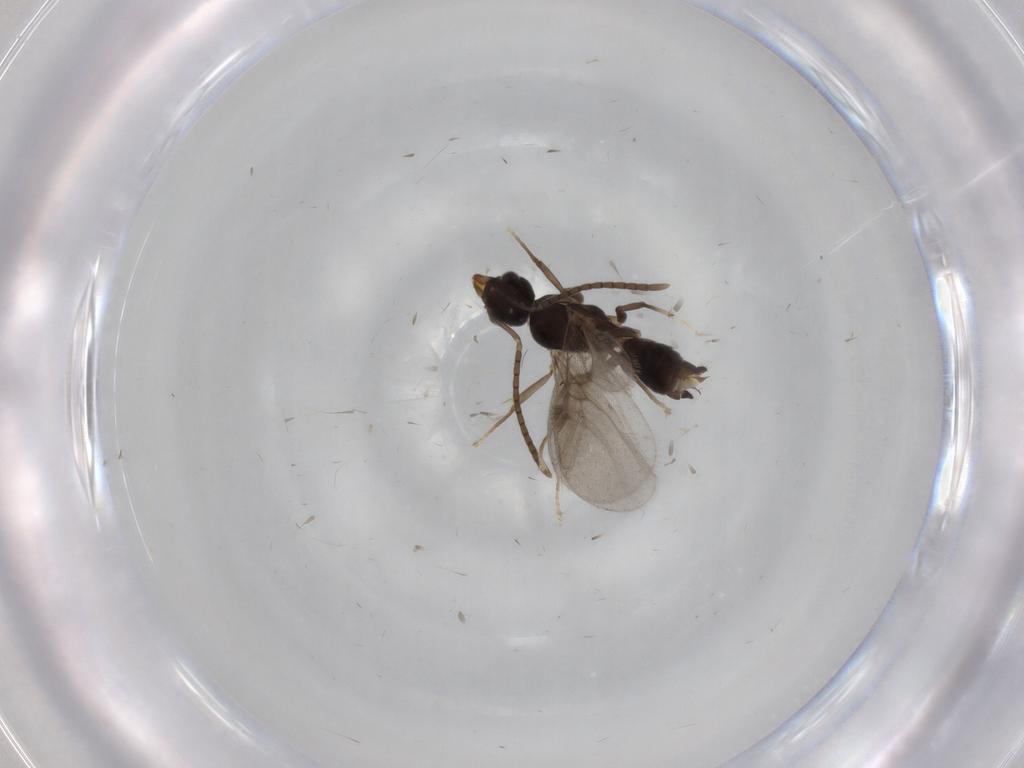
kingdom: Animalia
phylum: Arthropoda
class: Insecta
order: Hymenoptera
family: Formicidae
